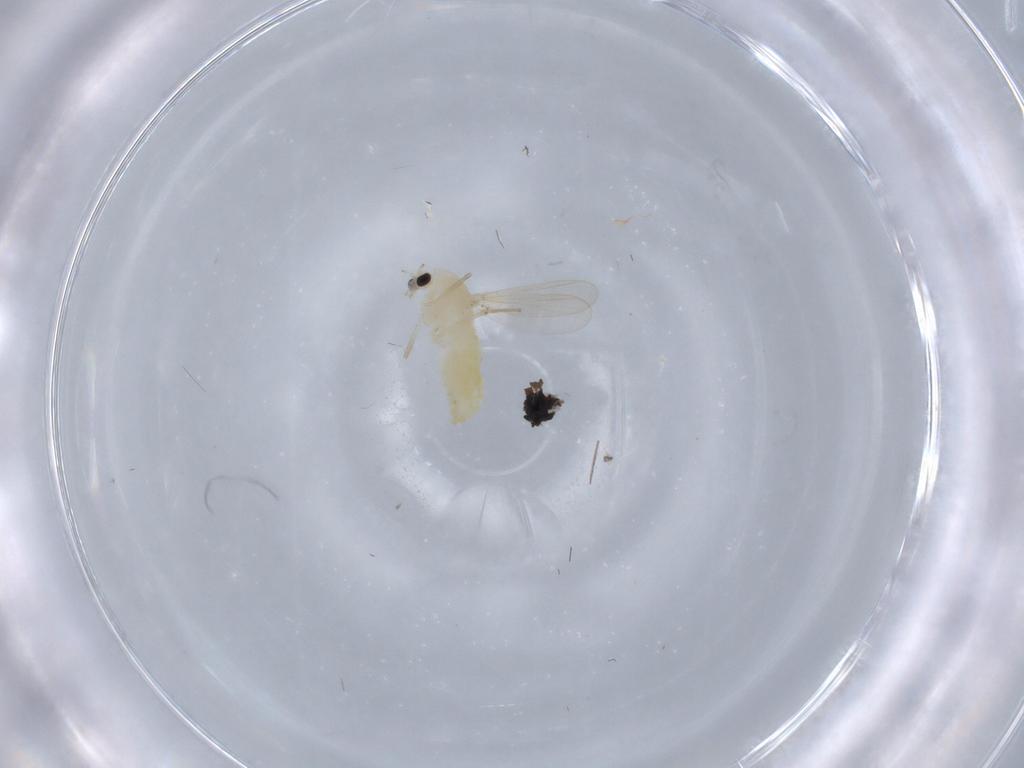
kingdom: Animalia
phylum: Arthropoda
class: Insecta
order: Diptera
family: Chironomidae
